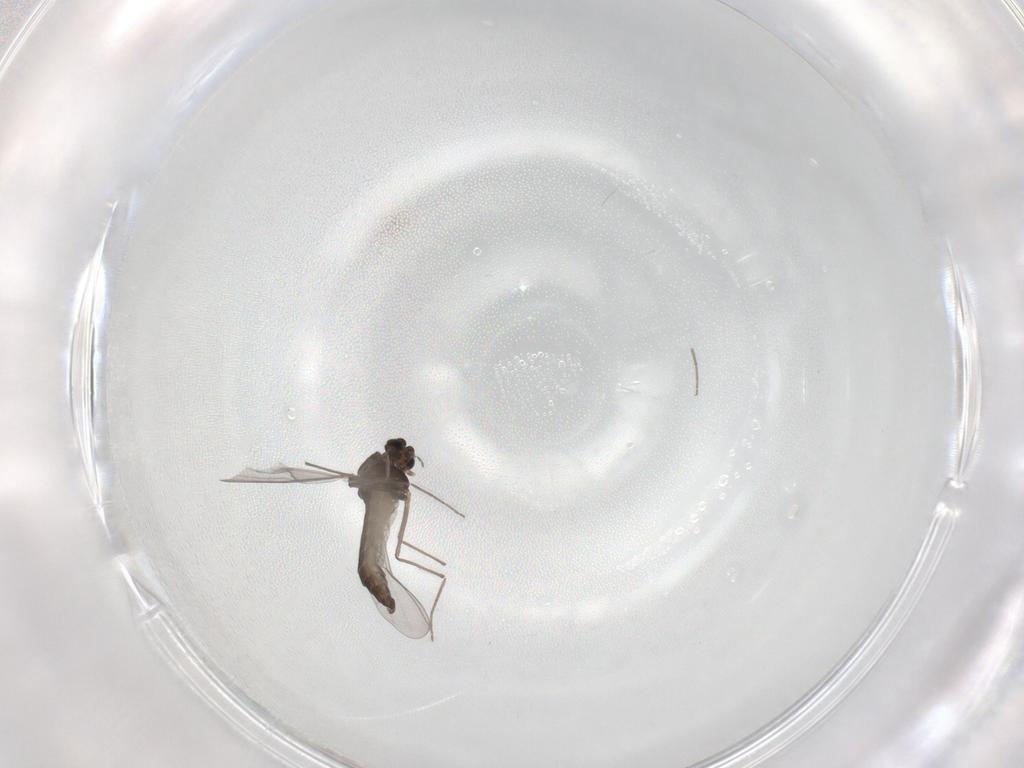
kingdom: Animalia
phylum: Arthropoda
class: Insecta
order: Diptera
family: Chironomidae
